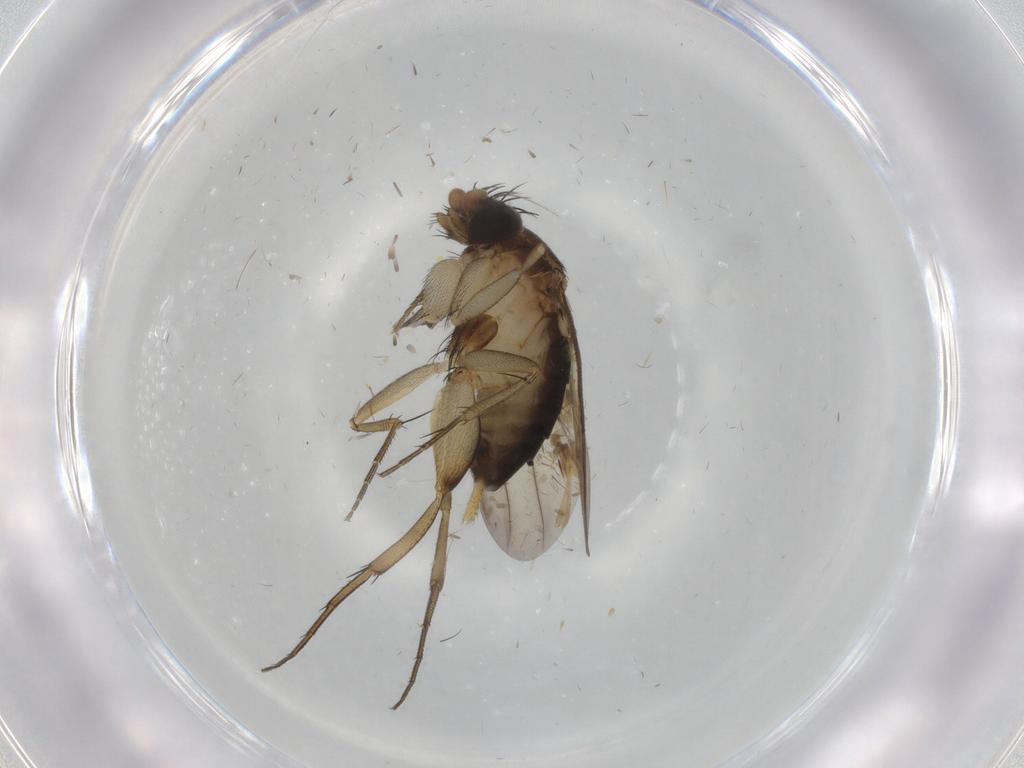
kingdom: Animalia
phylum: Arthropoda
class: Insecta
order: Diptera
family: Phoridae
